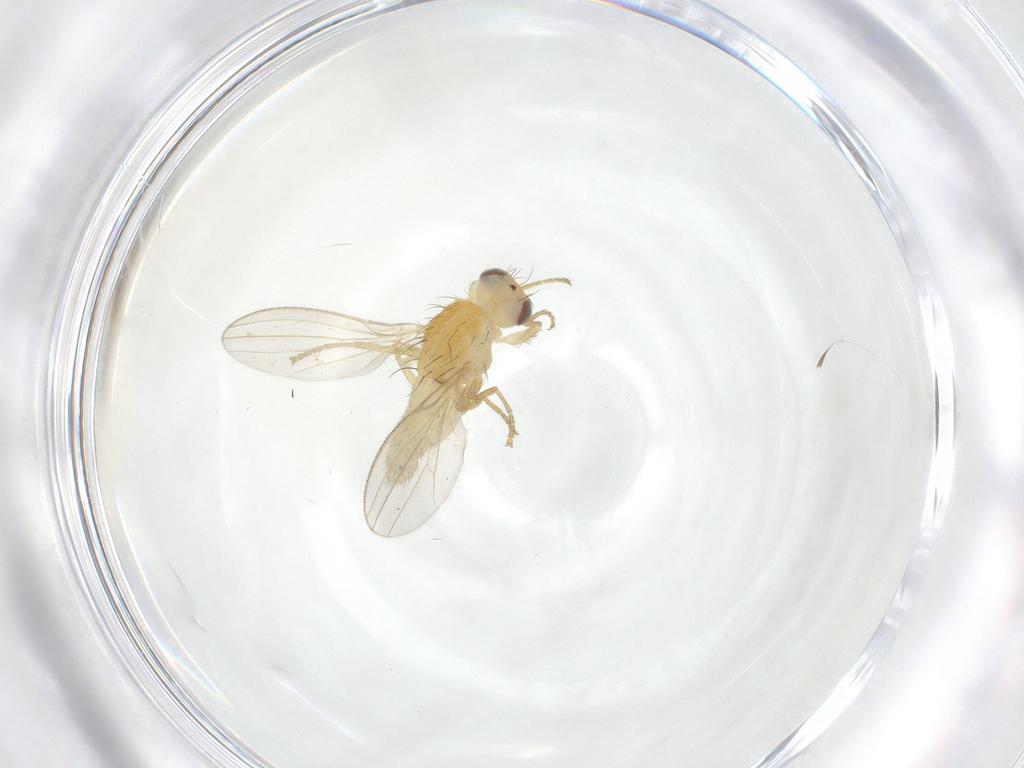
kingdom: Animalia
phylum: Arthropoda
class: Insecta
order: Diptera
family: Chyromyidae
